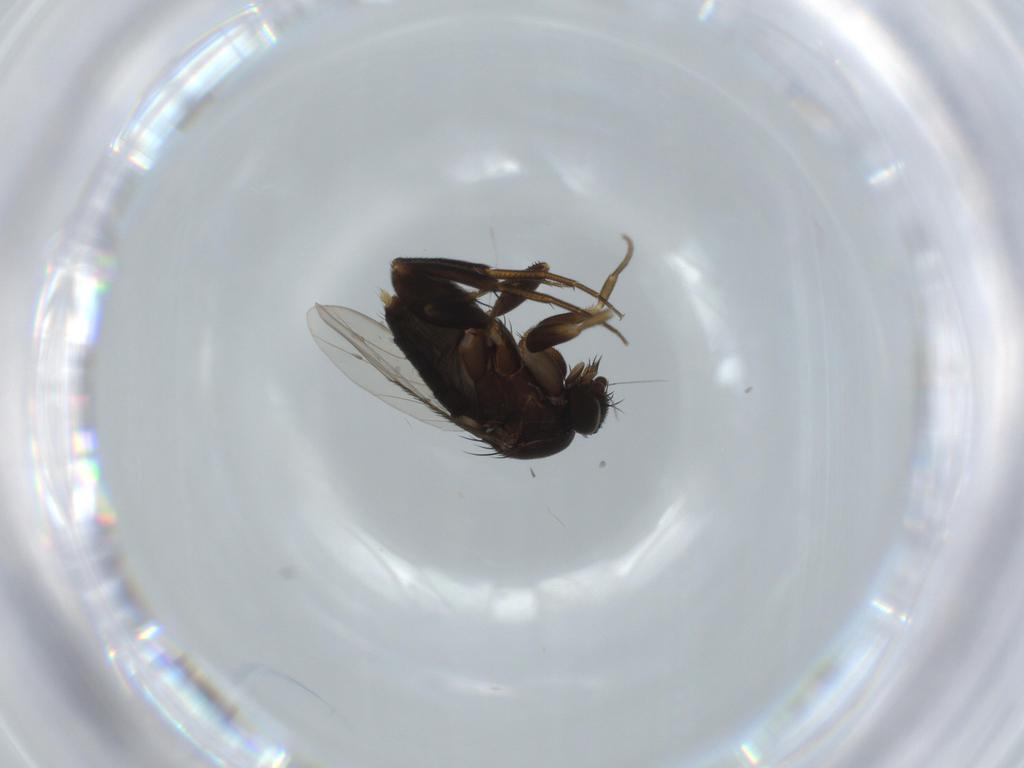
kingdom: Animalia
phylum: Arthropoda
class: Insecta
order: Diptera
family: Phoridae
